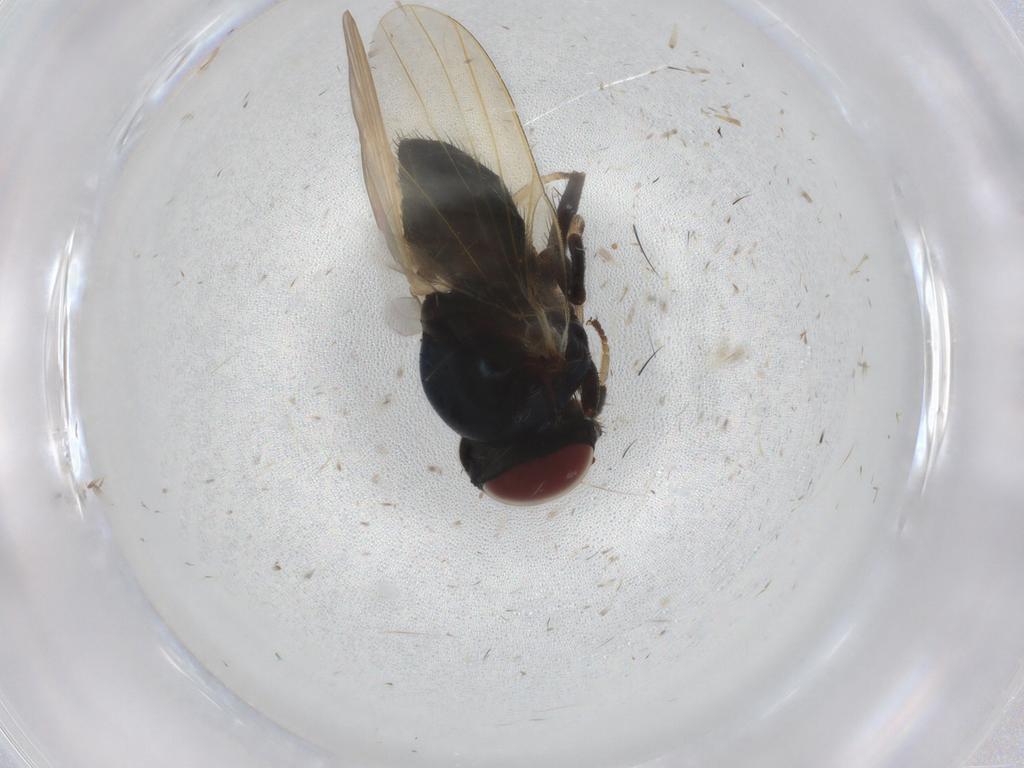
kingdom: Animalia
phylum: Arthropoda
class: Insecta
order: Diptera
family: Lonchaeidae
